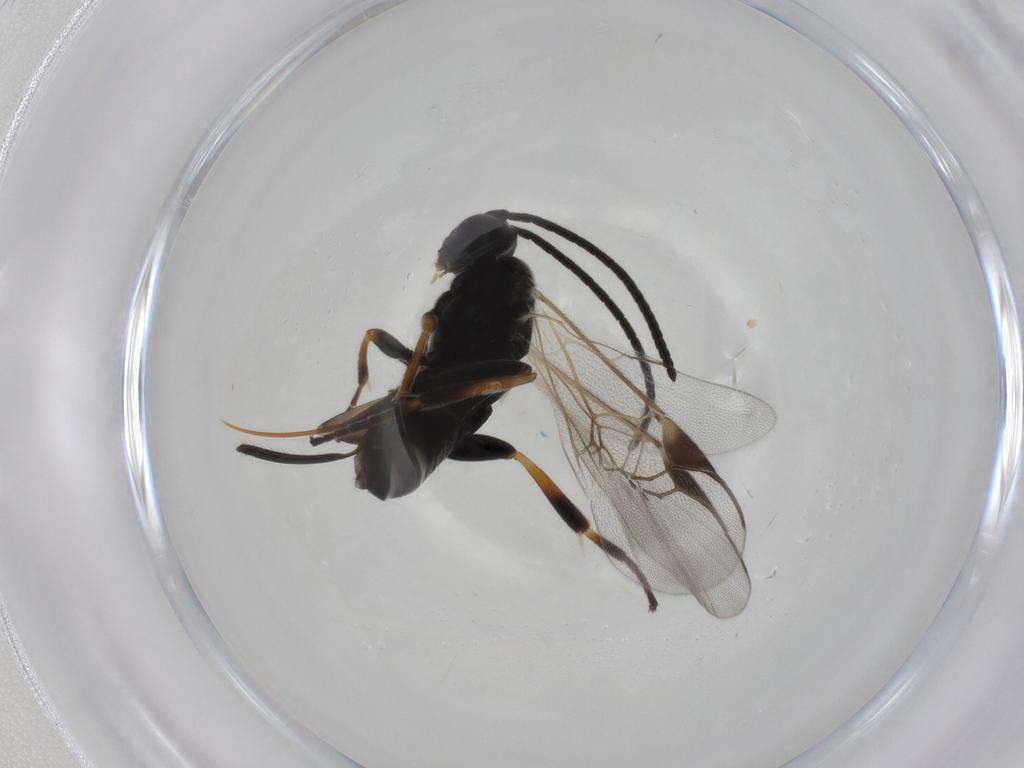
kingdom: Animalia
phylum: Arthropoda
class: Insecta
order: Hymenoptera
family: Braconidae
